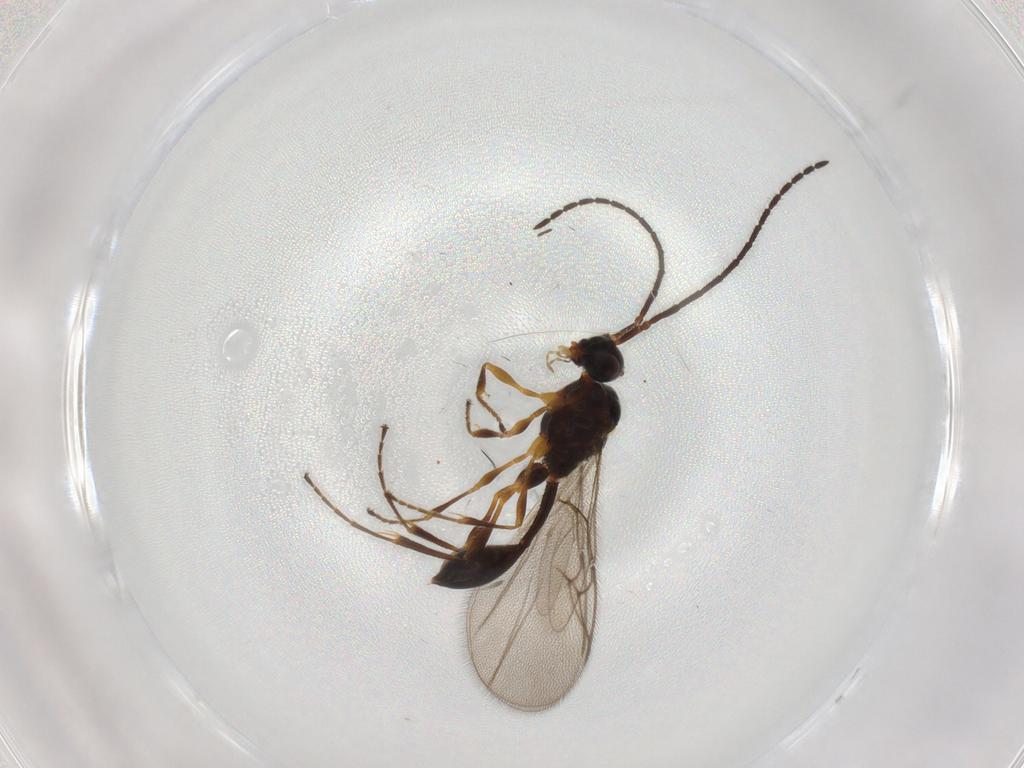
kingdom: Animalia
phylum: Arthropoda
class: Insecta
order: Hymenoptera
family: Diapriidae
